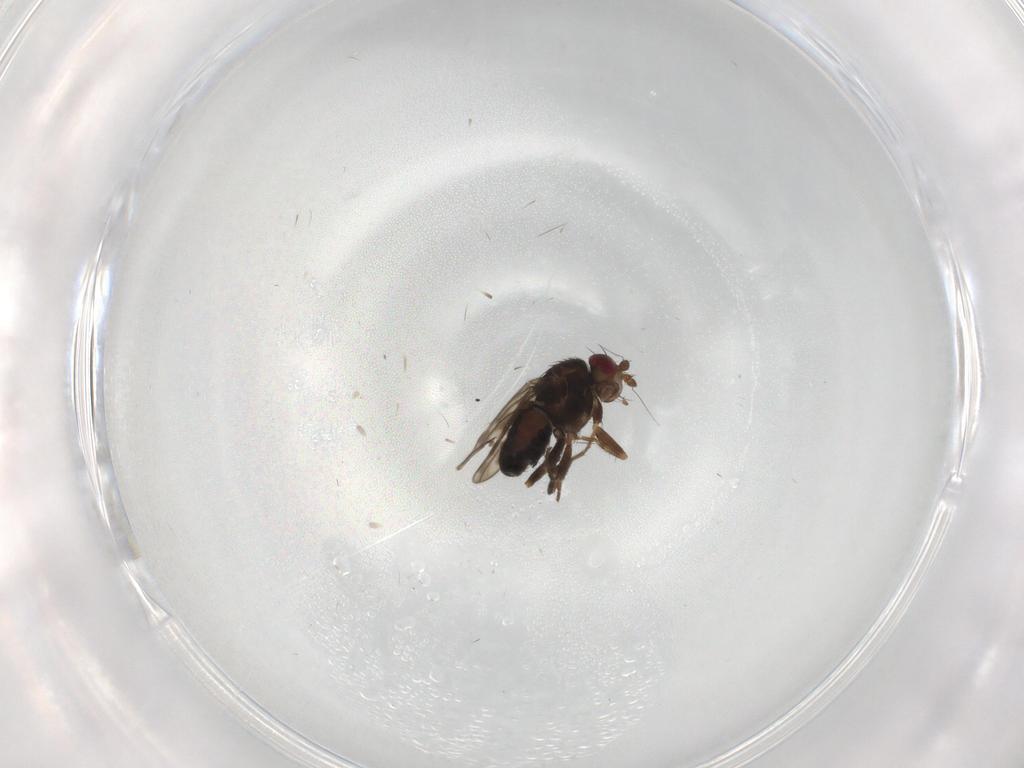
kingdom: Animalia
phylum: Arthropoda
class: Insecta
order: Diptera
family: Sphaeroceridae
